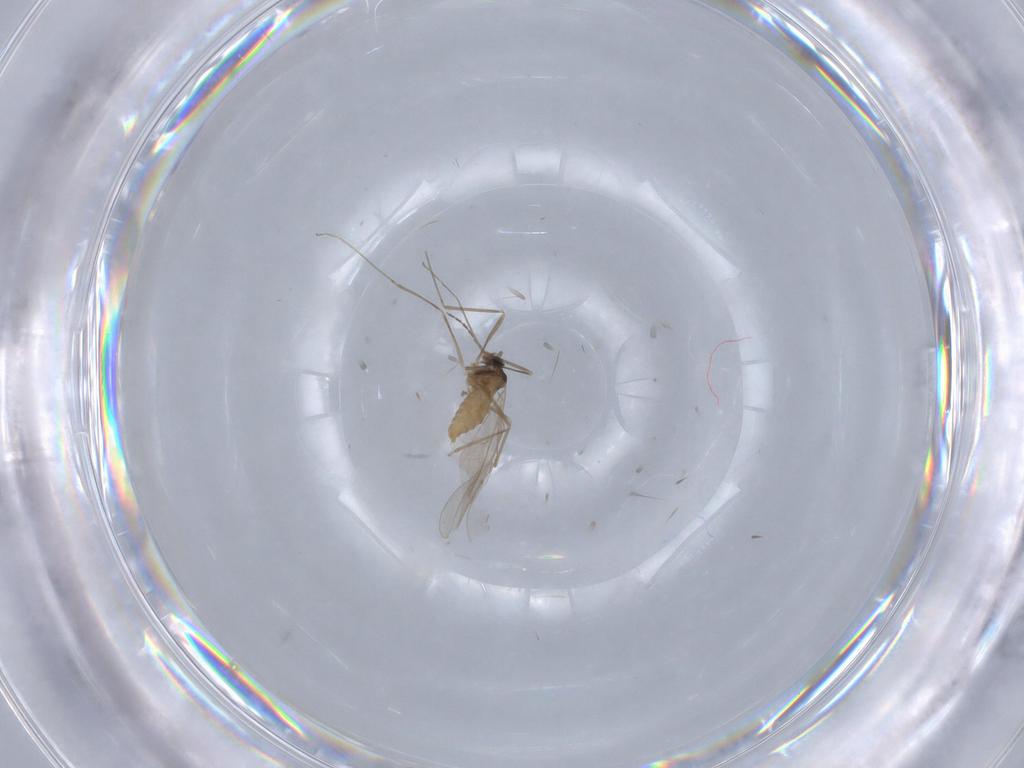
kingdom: Animalia
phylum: Arthropoda
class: Insecta
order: Diptera
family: Cecidomyiidae
